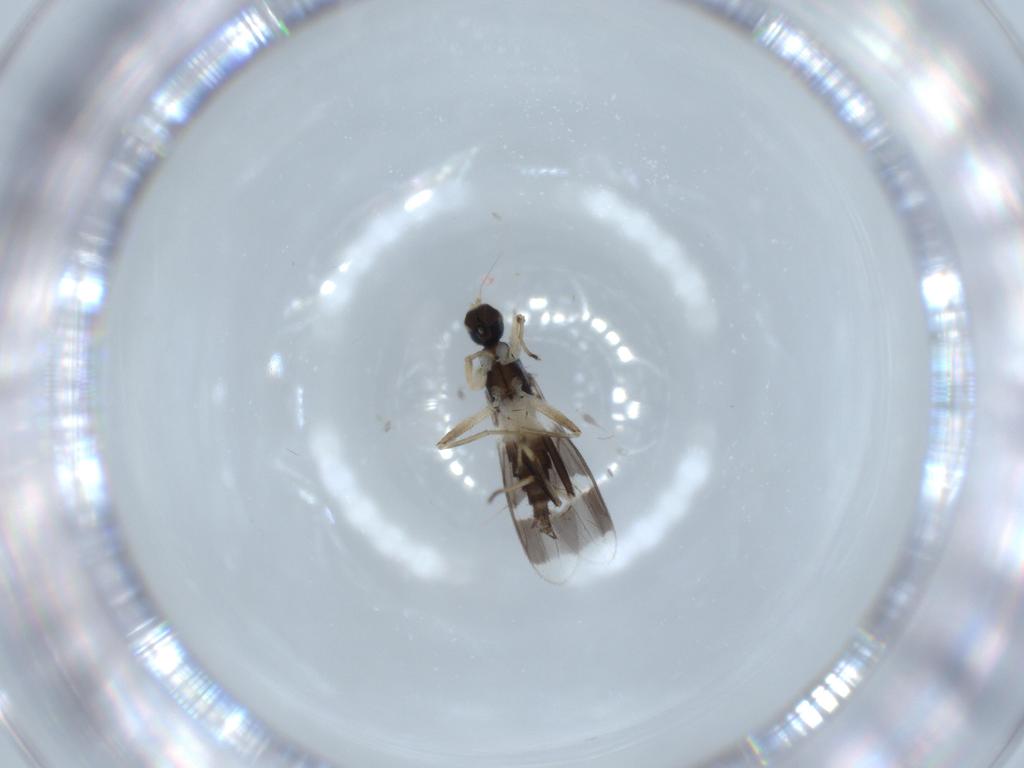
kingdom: Animalia
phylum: Arthropoda
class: Insecta
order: Diptera
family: Hybotidae
